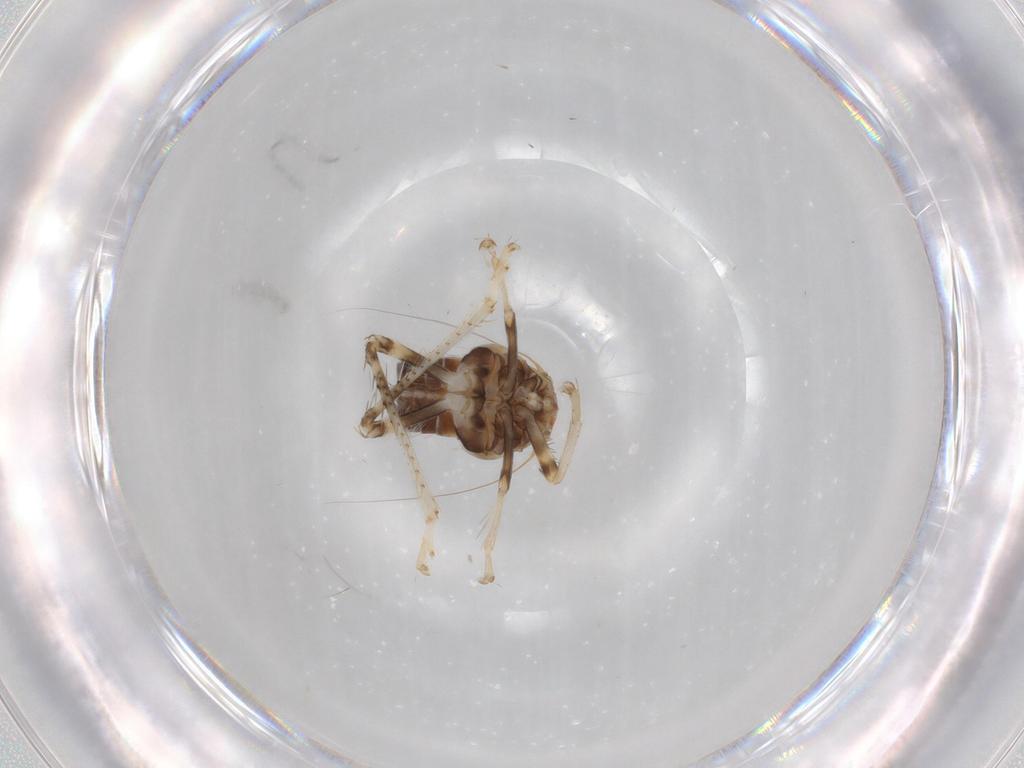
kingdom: Animalia
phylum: Arthropoda
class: Insecta
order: Hemiptera
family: Cicadellidae
